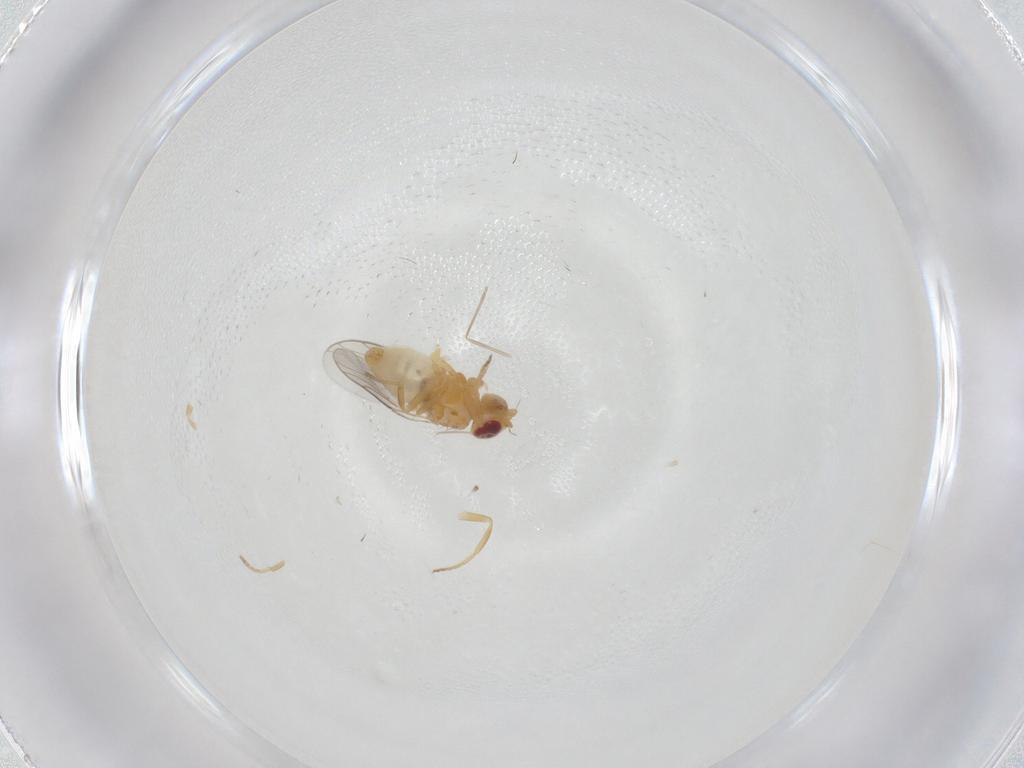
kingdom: Animalia
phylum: Arthropoda
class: Insecta
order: Diptera
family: Chloropidae
